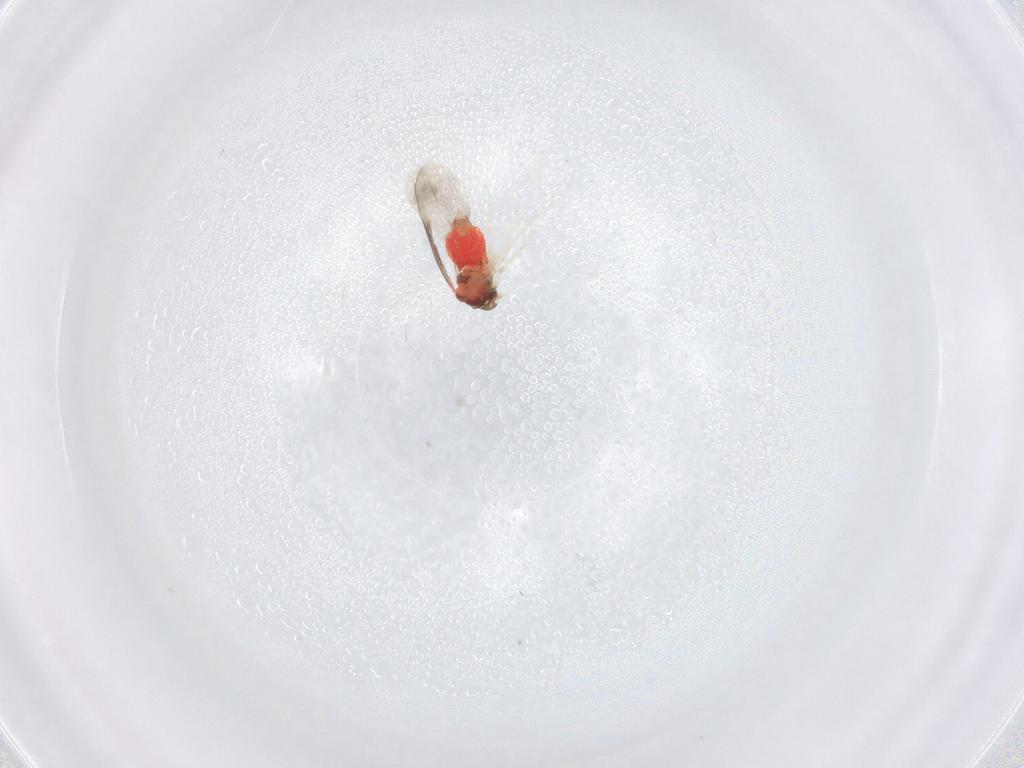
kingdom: Animalia
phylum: Arthropoda
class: Insecta
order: Hemiptera
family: Aleyrodidae
